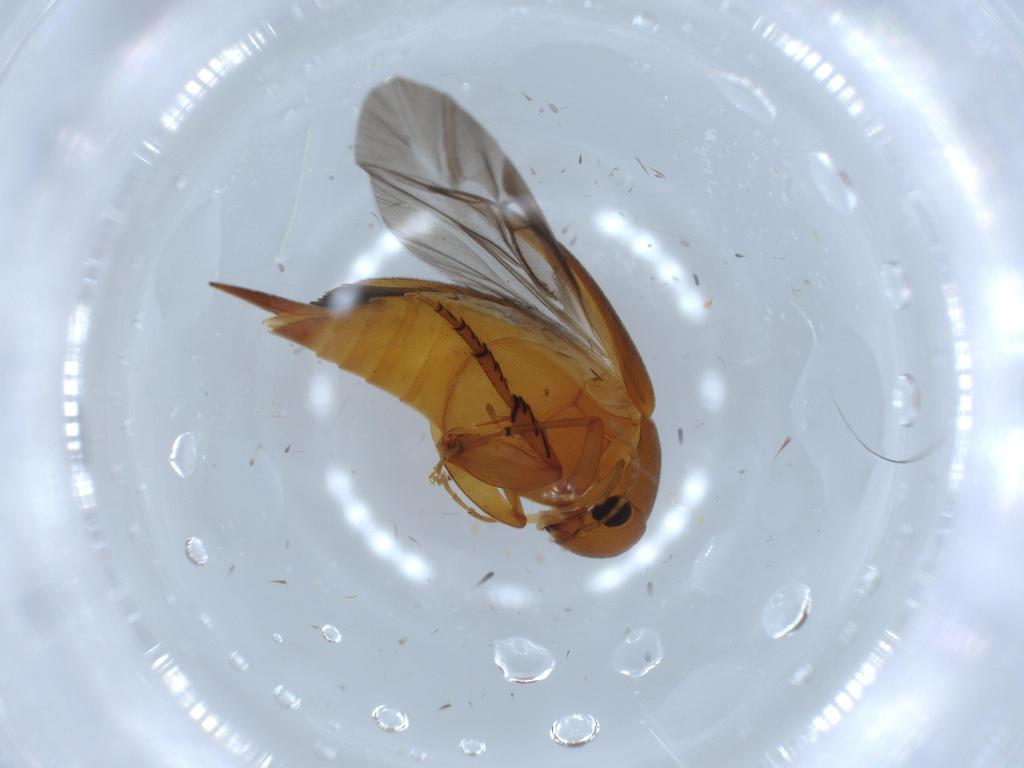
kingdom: Animalia
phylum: Arthropoda
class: Insecta
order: Coleoptera
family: Mordellidae
